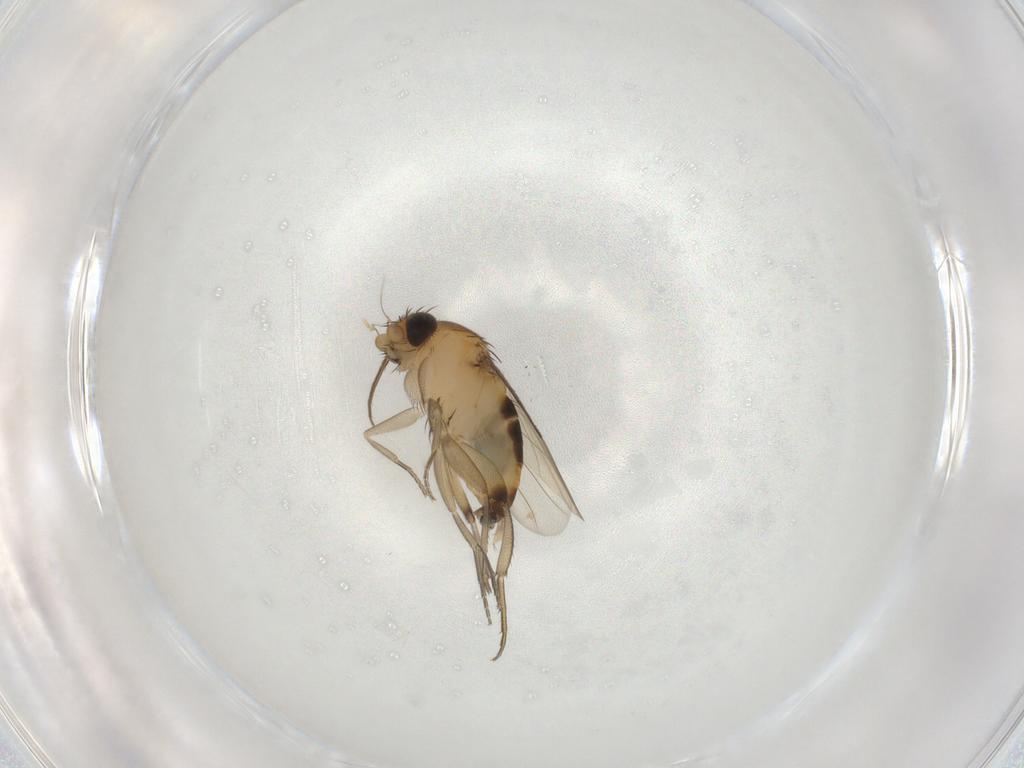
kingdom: Animalia
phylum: Arthropoda
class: Insecta
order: Diptera
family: Phoridae
